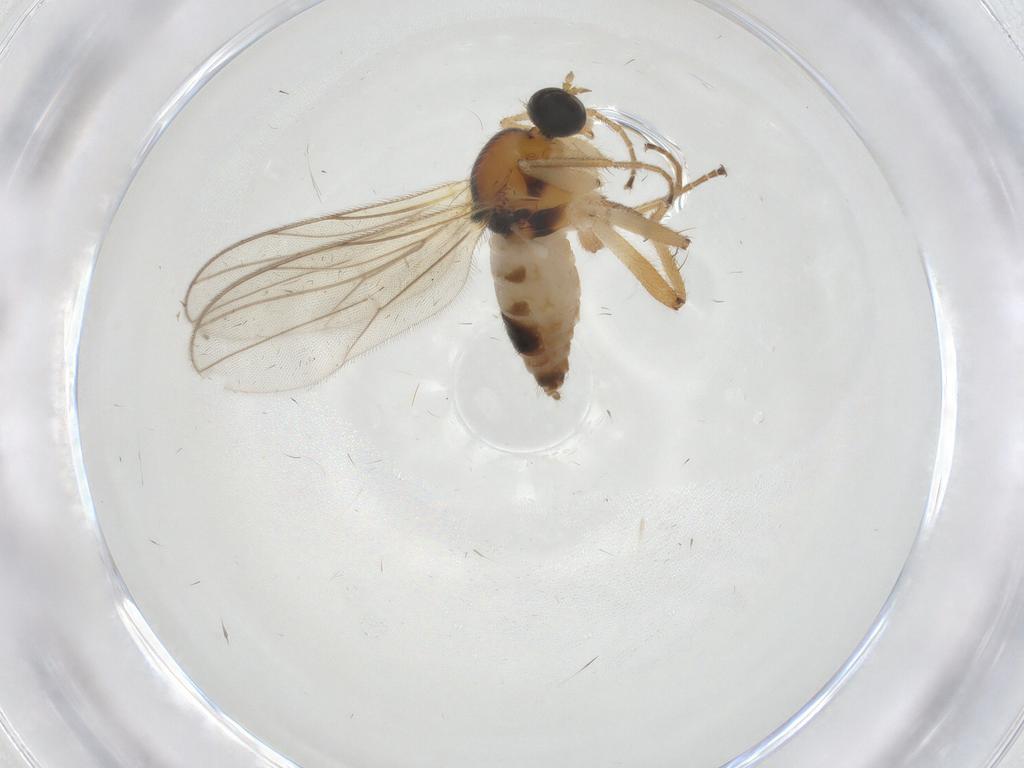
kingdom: Animalia
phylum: Arthropoda
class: Insecta
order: Diptera
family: Hybotidae
